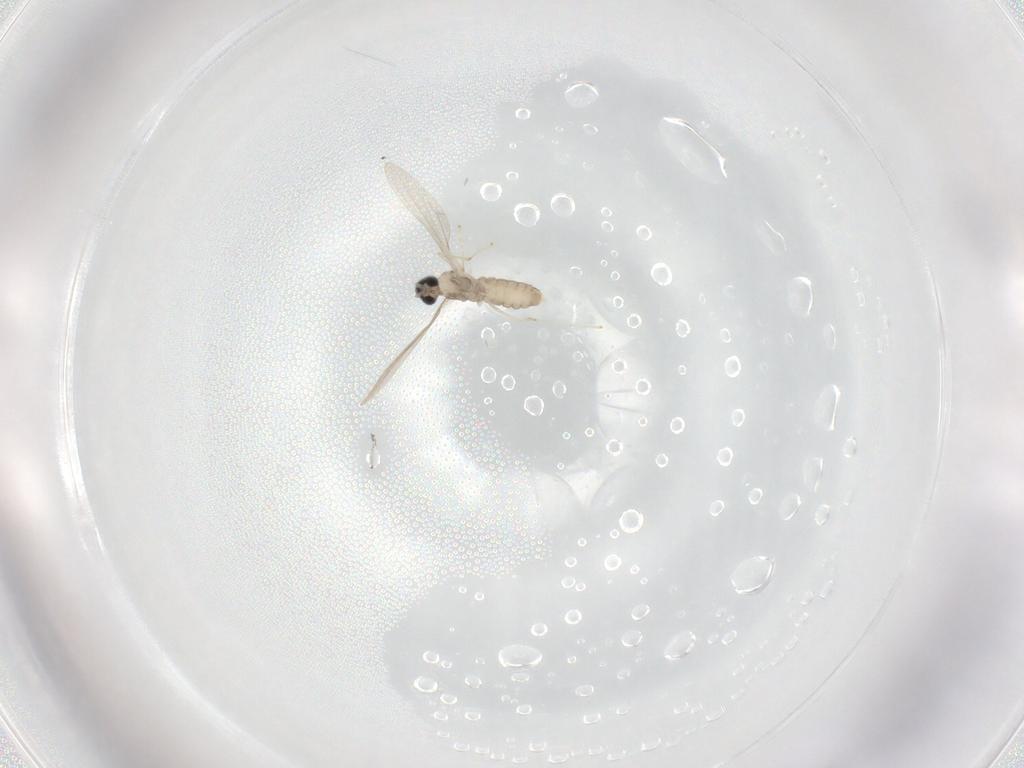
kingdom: Animalia
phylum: Arthropoda
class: Insecta
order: Diptera
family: Cecidomyiidae
